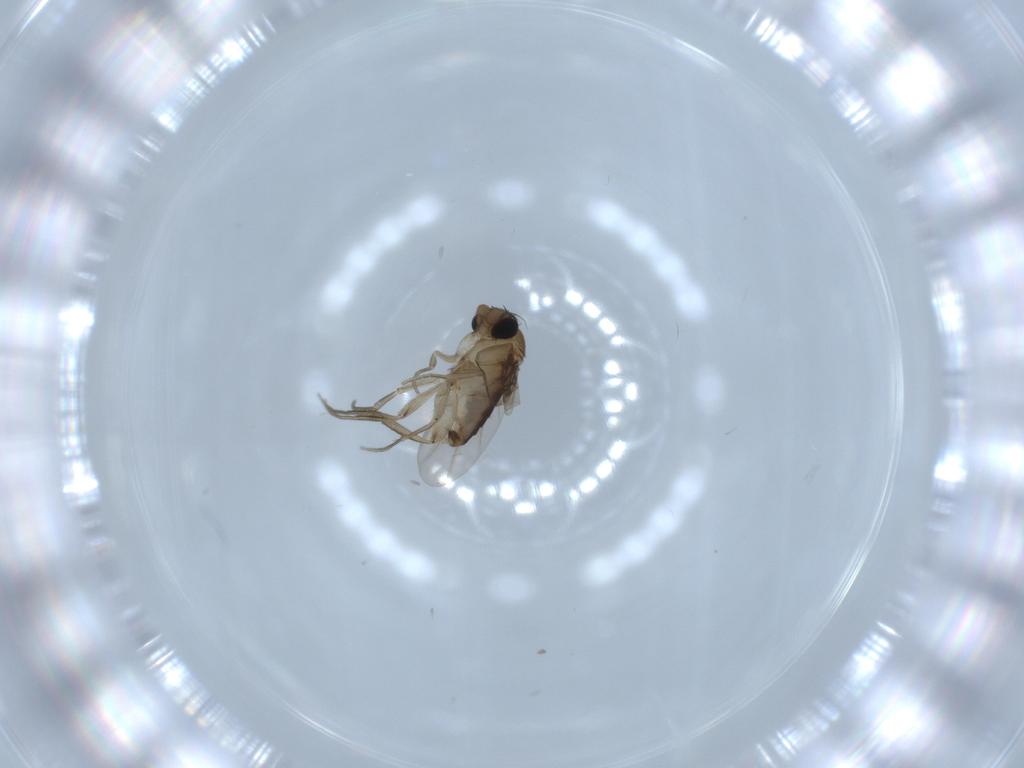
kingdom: Animalia
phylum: Arthropoda
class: Insecta
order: Diptera
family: Phoridae
